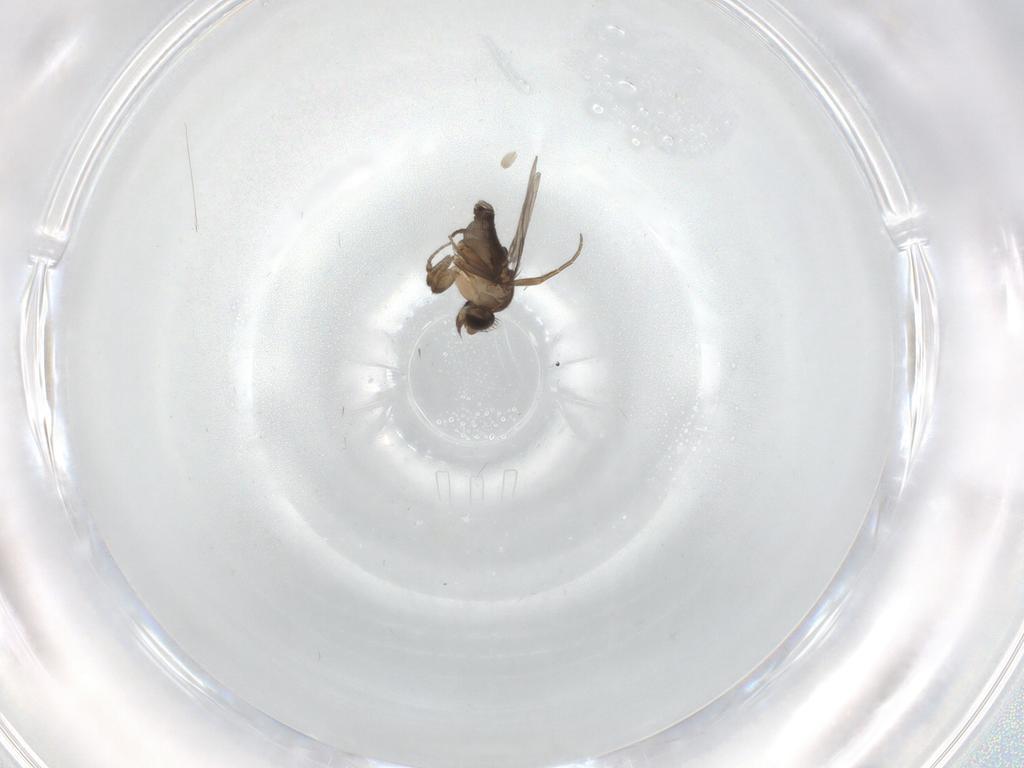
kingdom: Animalia
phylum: Arthropoda
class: Insecta
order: Diptera
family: Phoridae
